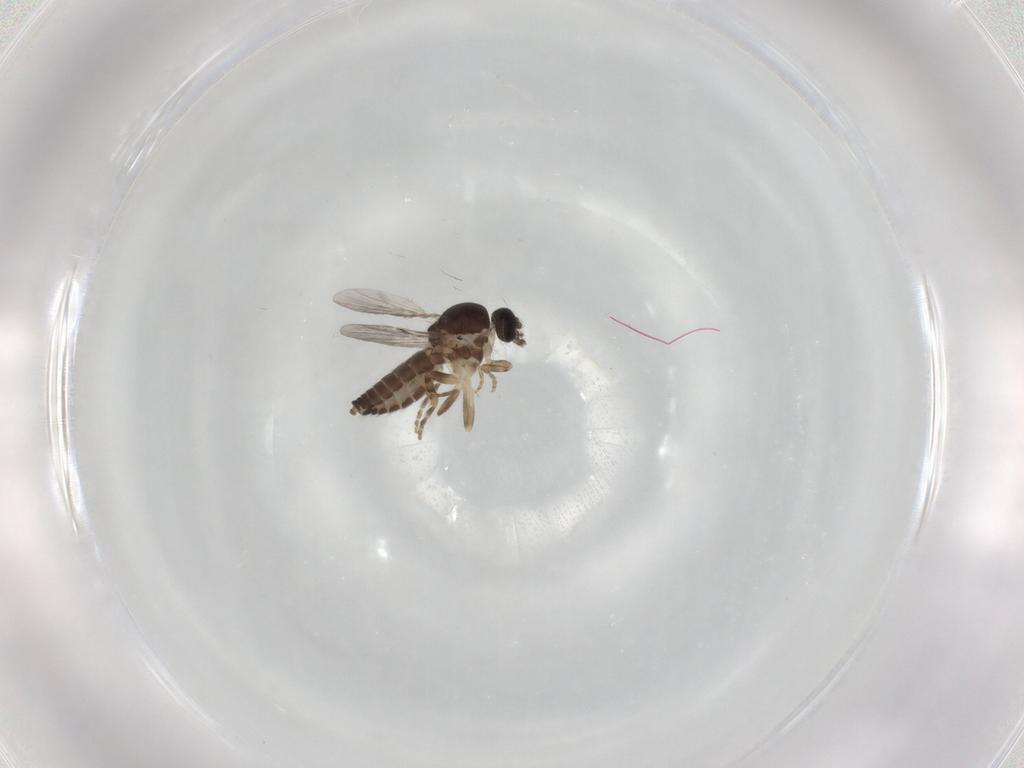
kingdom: Animalia
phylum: Arthropoda
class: Insecta
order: Diptera
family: Ceratopogonidae
